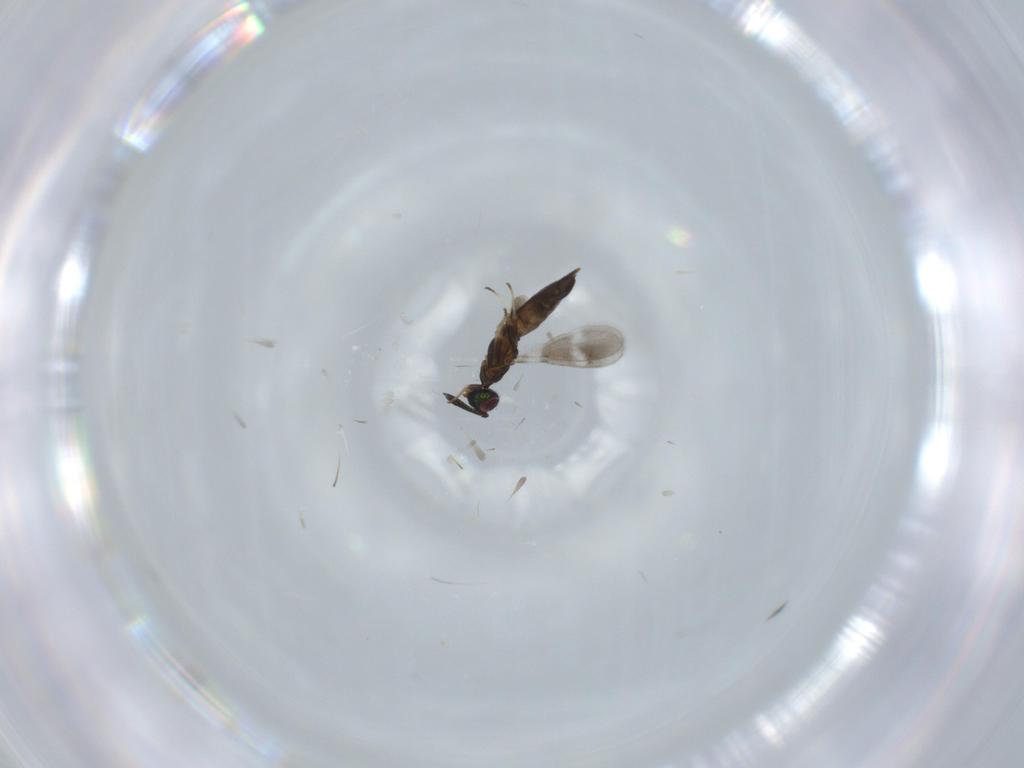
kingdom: Animalia
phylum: Arthropoda
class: Insecta
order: Hymenoptera
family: Eupelmidae
